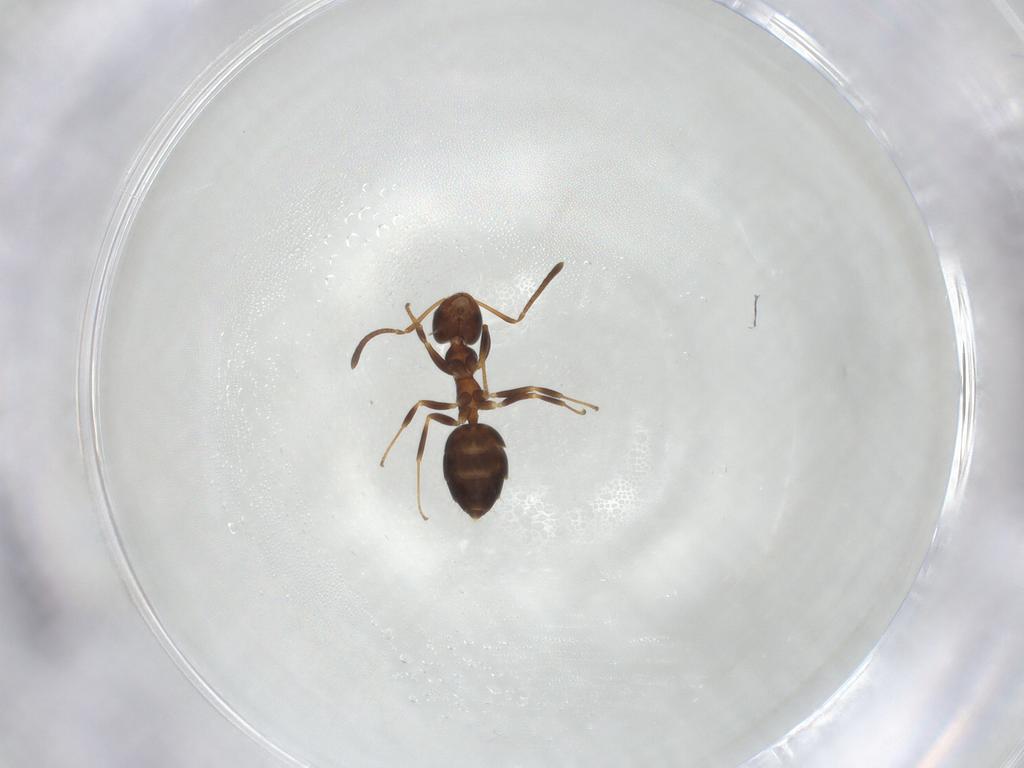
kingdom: Animalia
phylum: Arthropoda
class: Insecta
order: Hymenoptera
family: Formicidae
